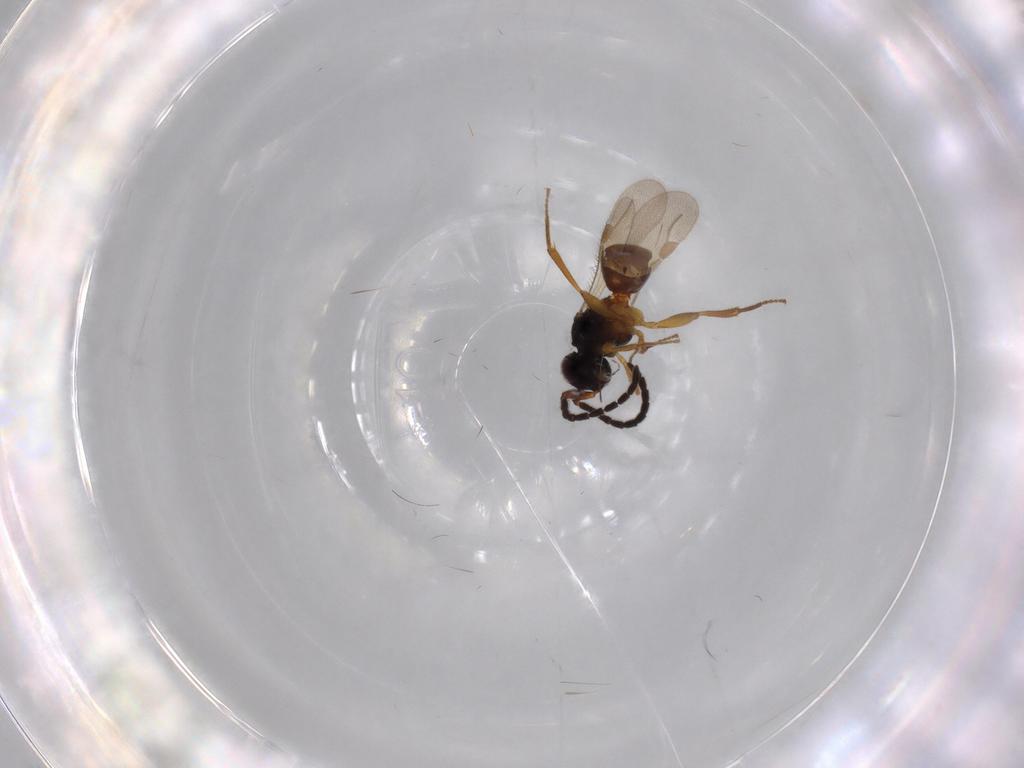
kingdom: Animalia
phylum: Arthropoda
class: Insecta
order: Hymenoptera
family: Megaspilidae
